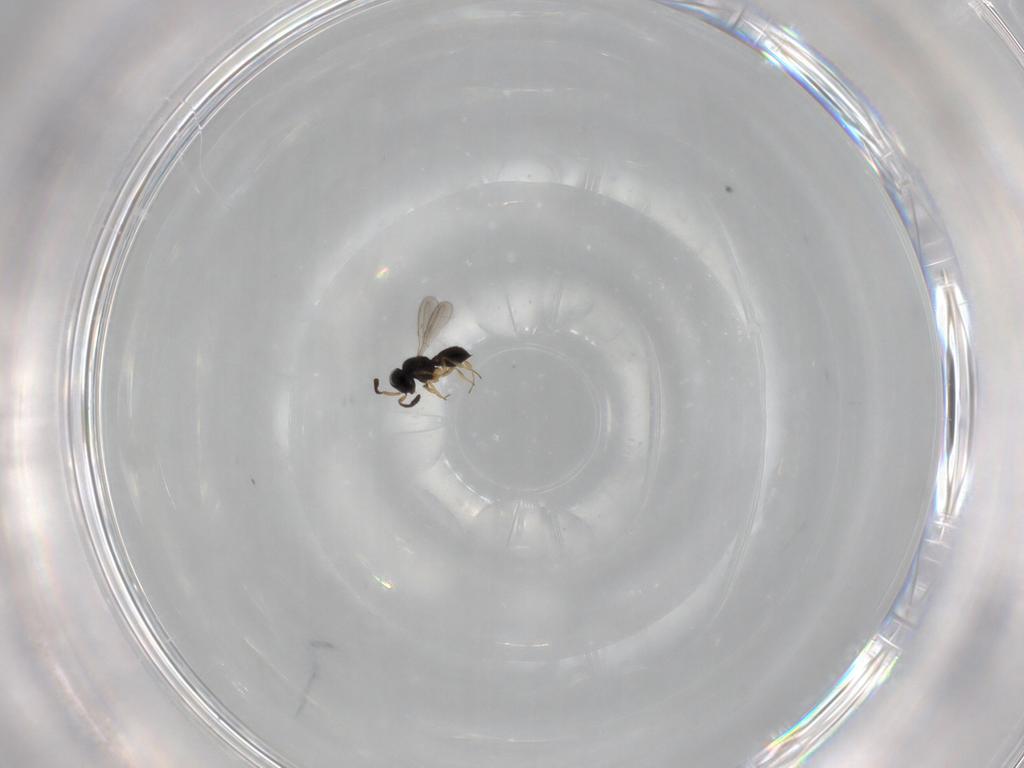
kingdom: Animalia
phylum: Arthropoda
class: Insecta
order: Hymenoptera
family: Scelionidae
